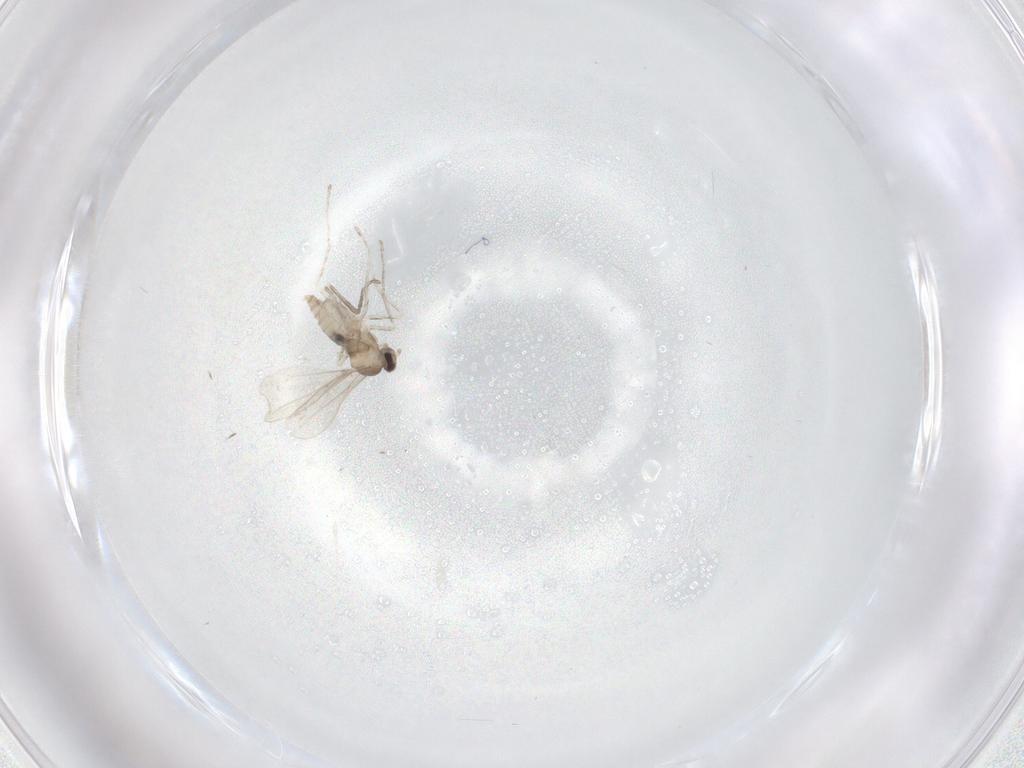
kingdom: Animalia
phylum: Arthropoda
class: Insecta
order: Diptera
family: Cecidomyiidae
